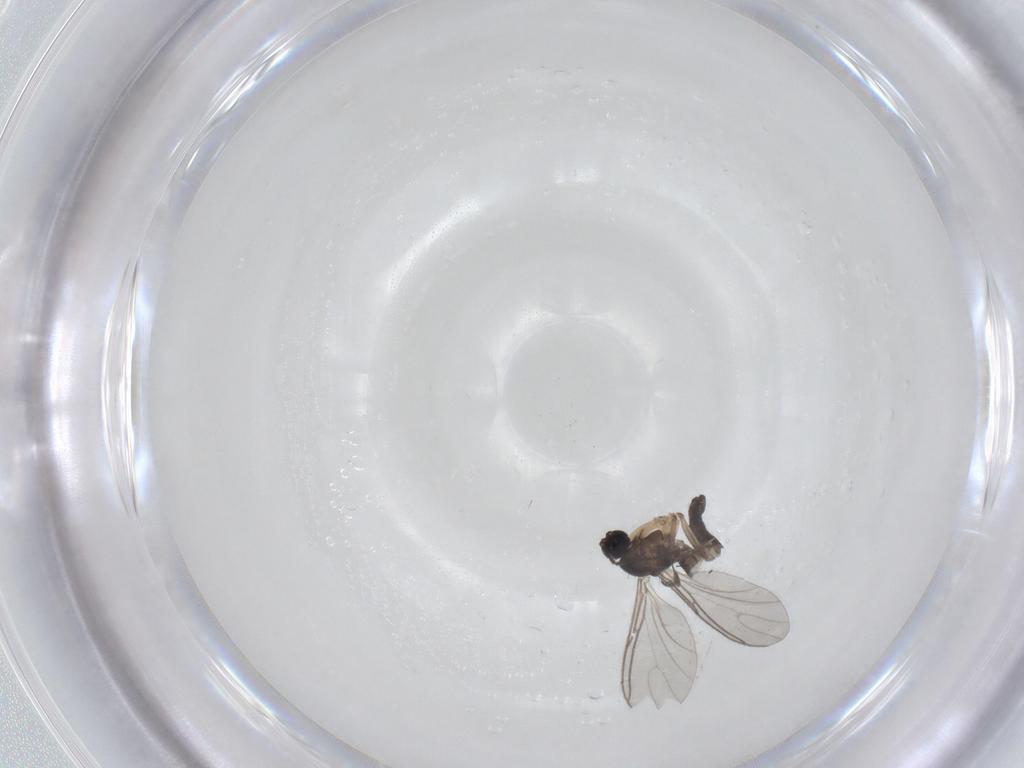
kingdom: Animalia
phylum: Arthropoda
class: Insecta
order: Diptera
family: Sciaridae
